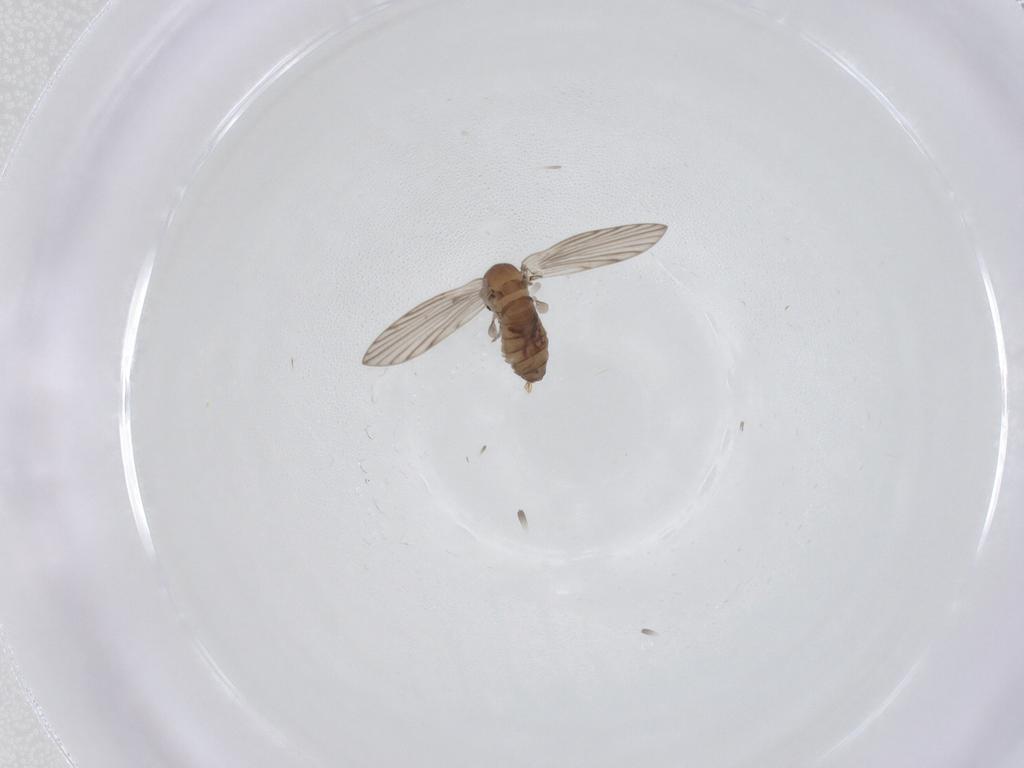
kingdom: Animalia
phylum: Arthropoda
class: Insecta
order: Diptera
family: Psychodidae
